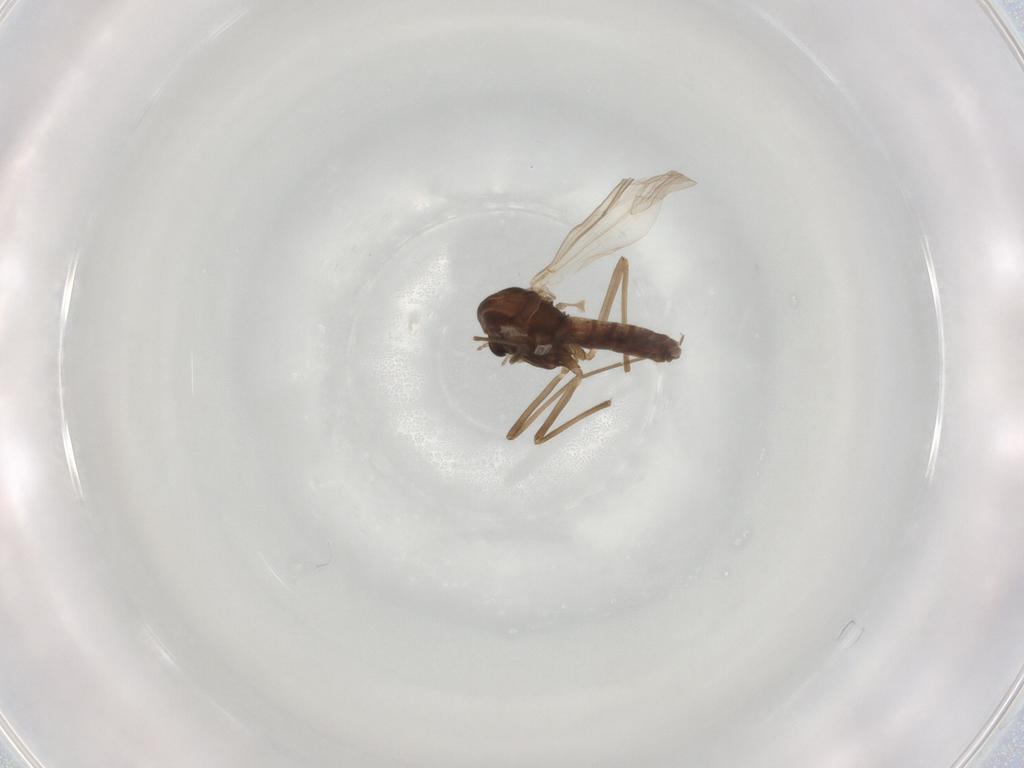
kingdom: Animalia
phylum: Arthropoda
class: Insecta
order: Diptera
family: Chironomidae
